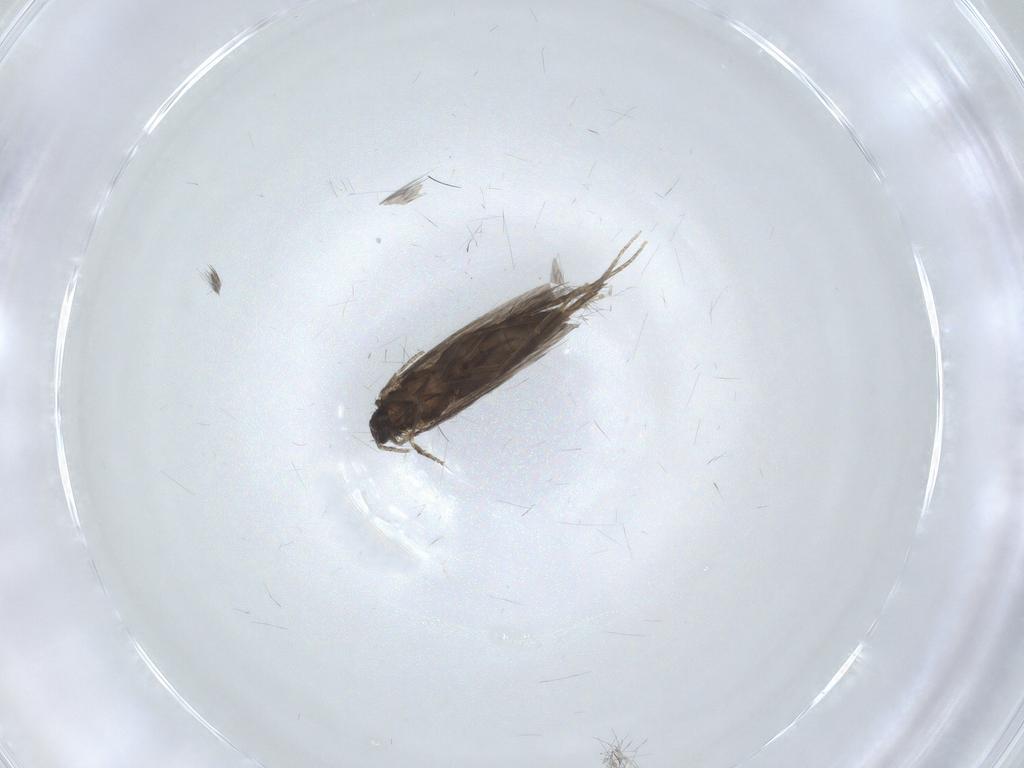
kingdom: Animalia
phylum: Arthropoda
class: Insecta
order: Trichoptera
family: Hydroptilidae
